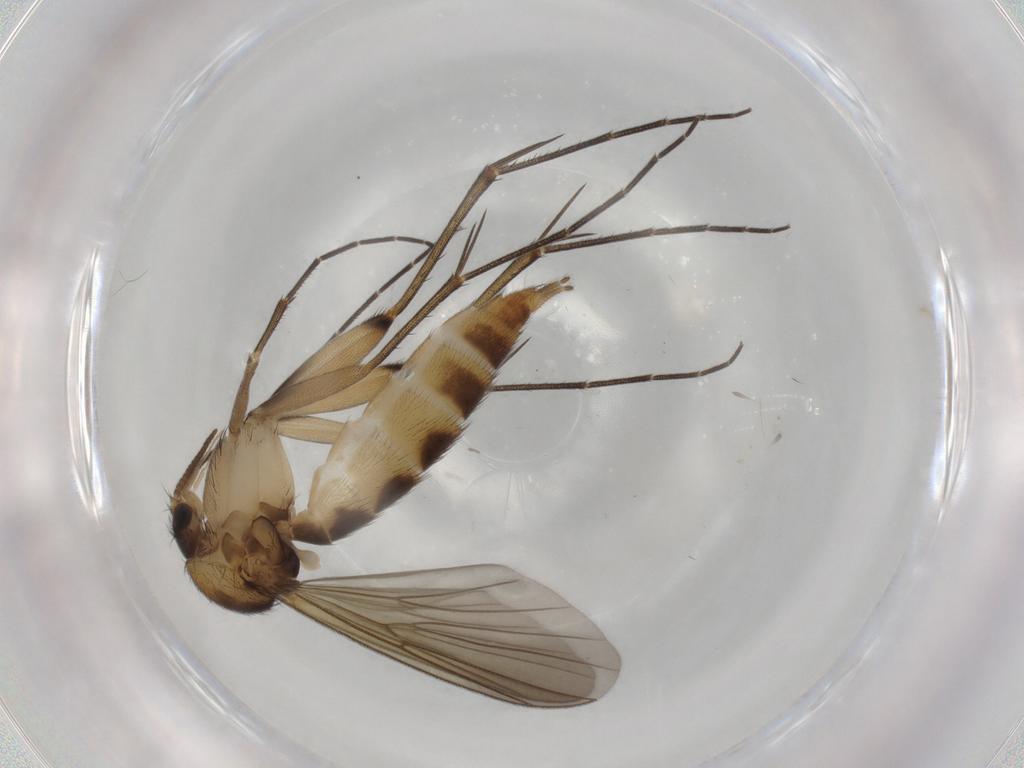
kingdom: Animalia
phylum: Arthropoda
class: Insecta
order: Diptera
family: Mycetophilidae
